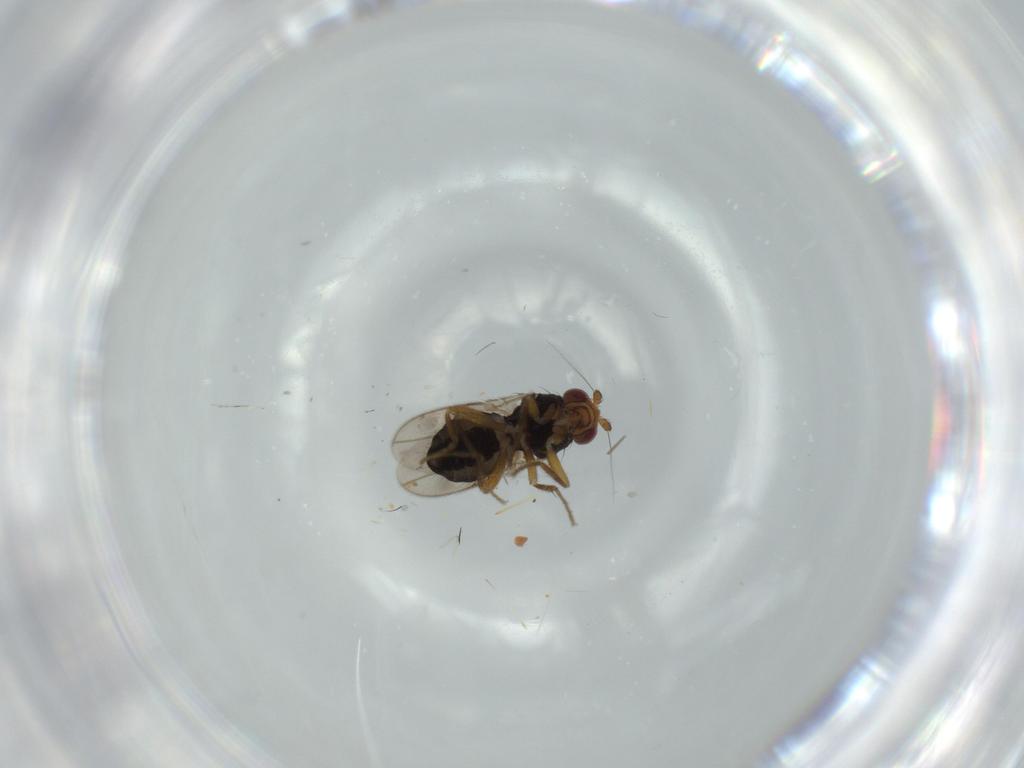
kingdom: Animalia
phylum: Arthropoda
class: Insecta
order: Diptera
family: Sphaeroceridae
